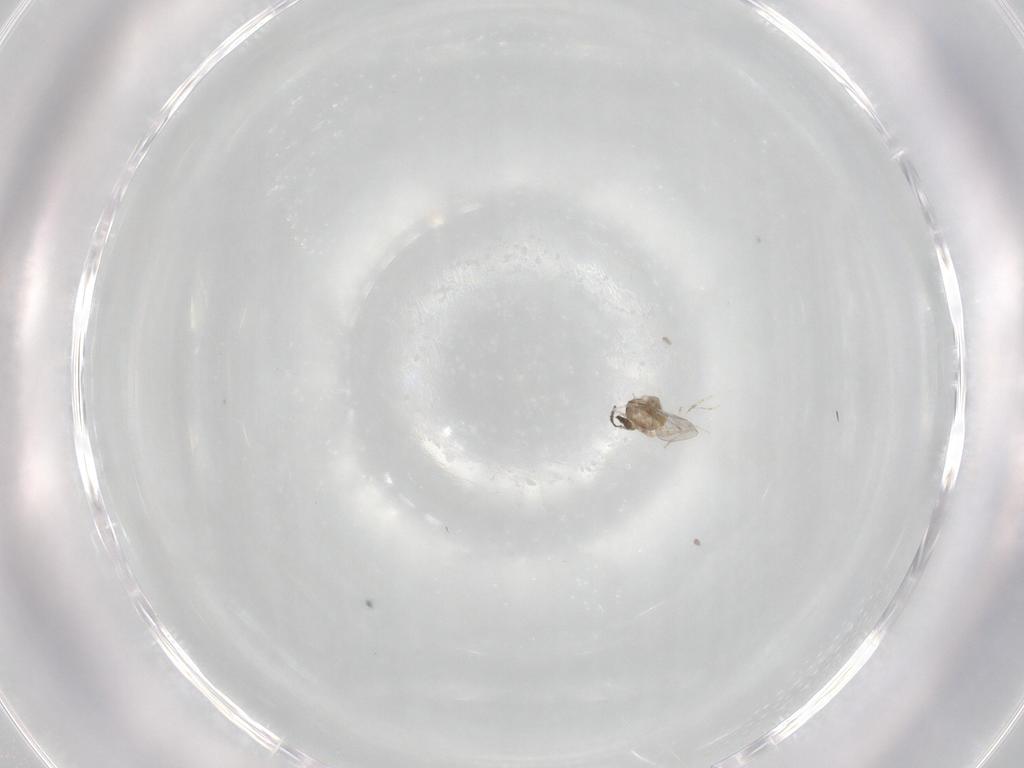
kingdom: Animalia
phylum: Arthropoda
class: Insecta
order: Diptera
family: Cecidomyiidae
